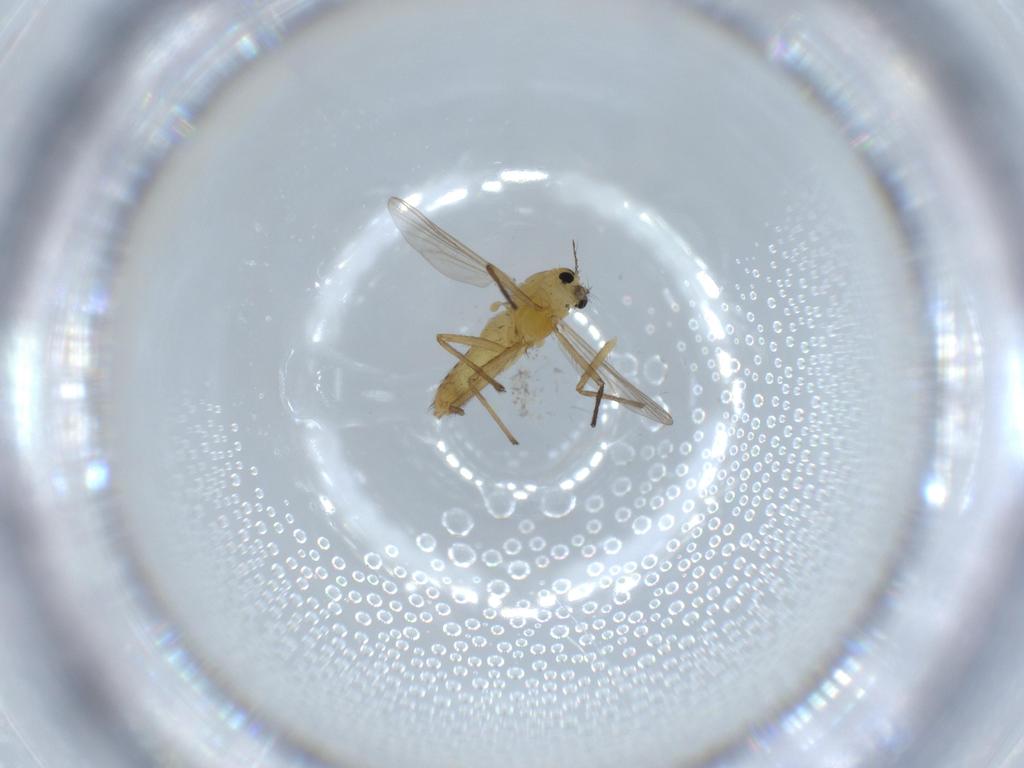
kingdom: Animalia
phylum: Arthropoda
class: Insecta
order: Diptera
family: Chironomidae
